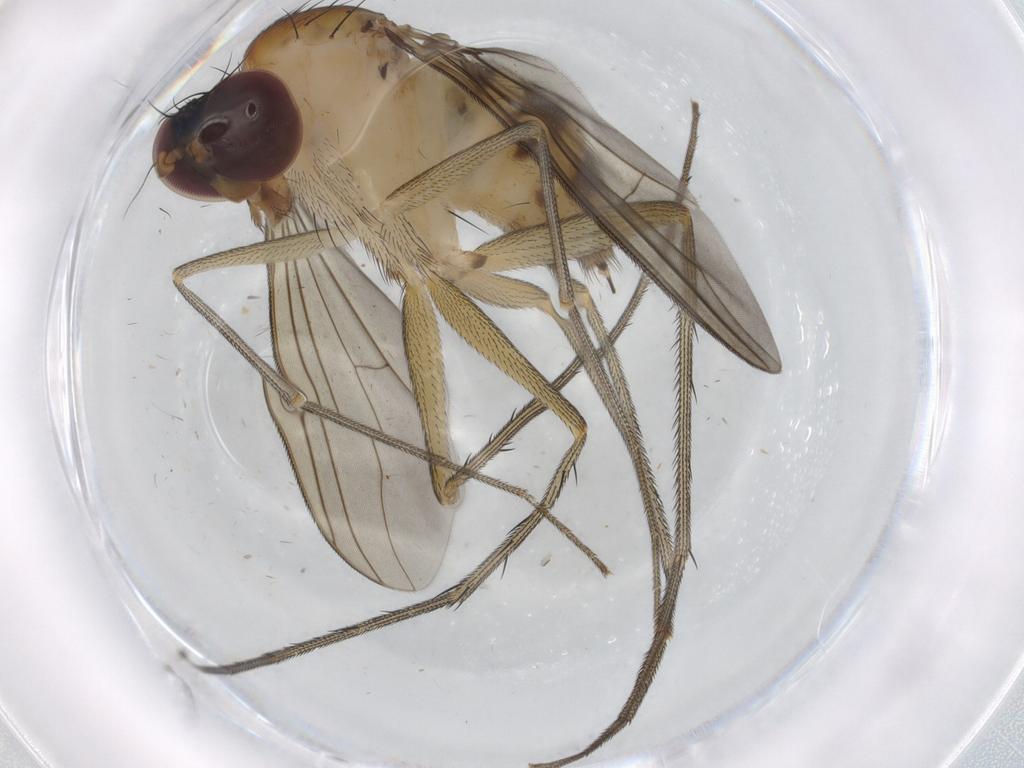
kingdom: Animalia
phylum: Arthropoda
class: Insecta
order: Diptera
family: Dolichopodidae
